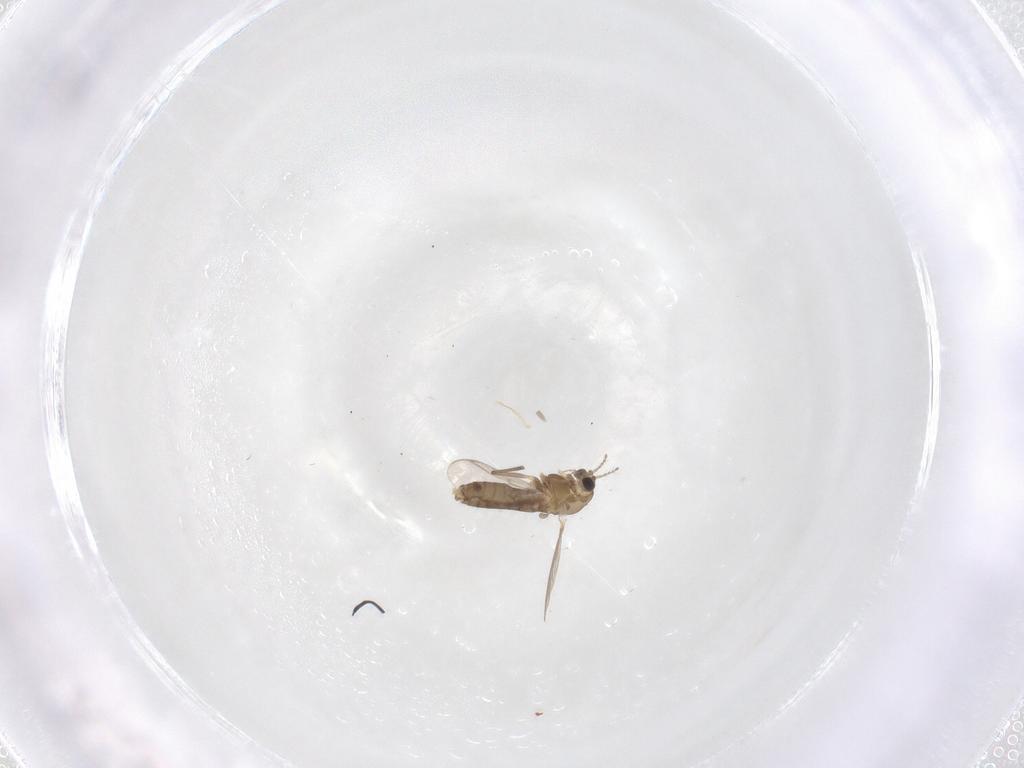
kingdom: Animalia
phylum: Arthropoda
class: Insecta
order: Diptera
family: Chironomidae
